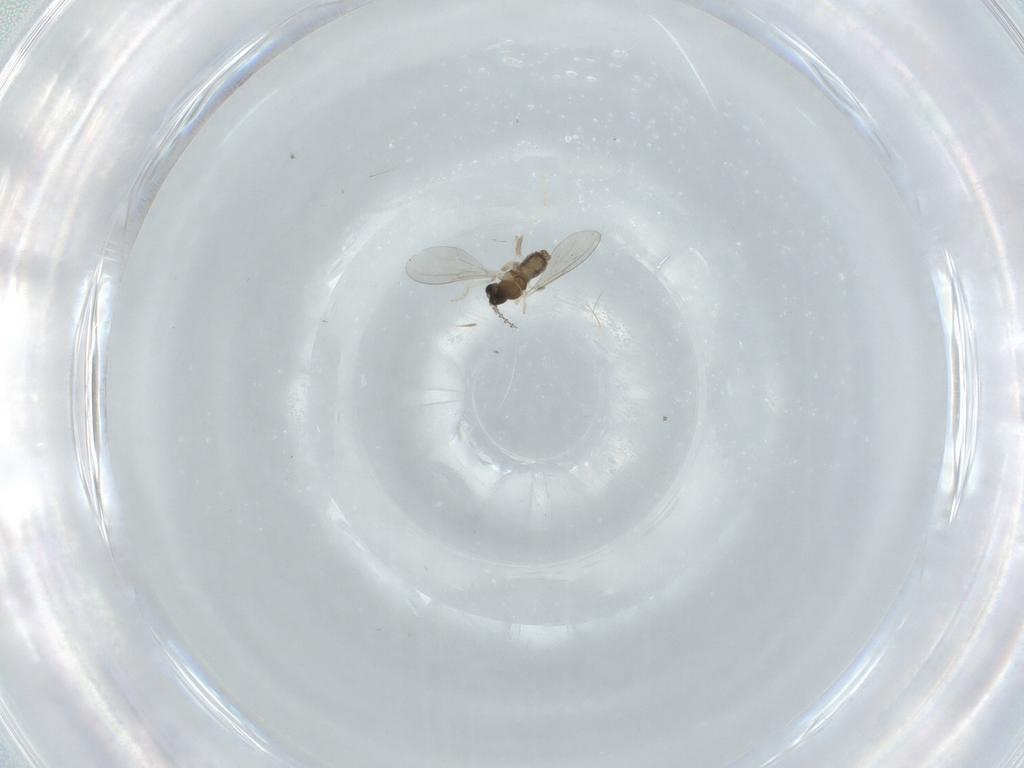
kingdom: Animalia
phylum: Arthropoda
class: Insecta
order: Diptera
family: Cecidomyiidae
